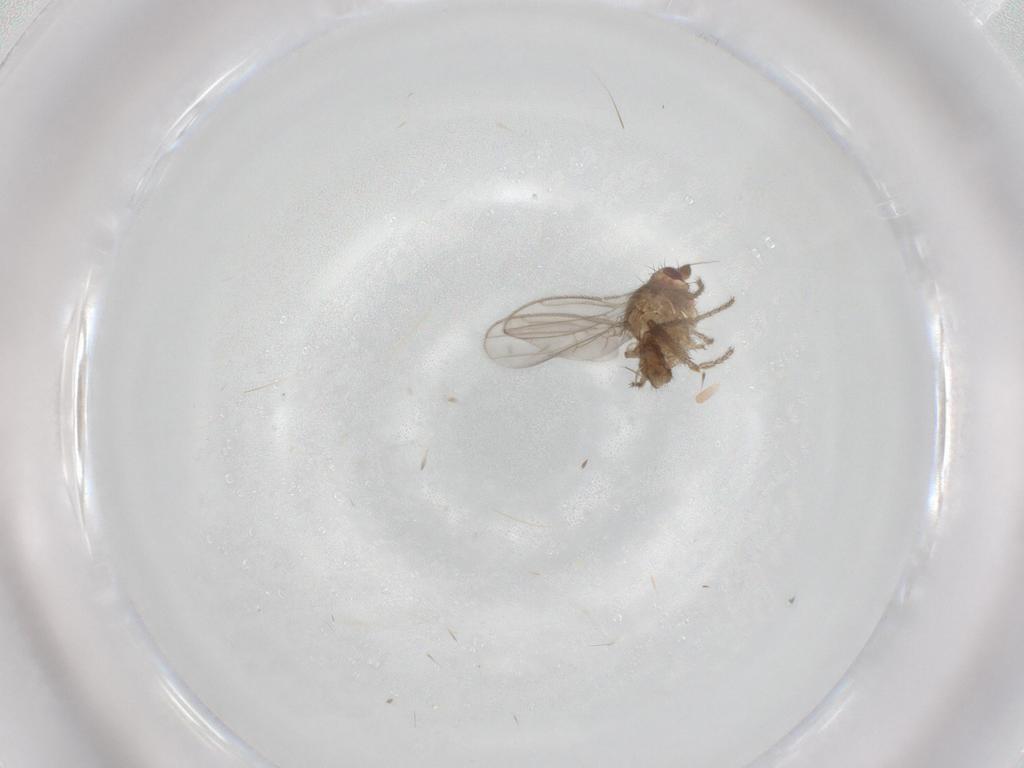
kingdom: Animalia
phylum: Arthropoda
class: Insecta
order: Diptera
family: Sphaeroceridae
